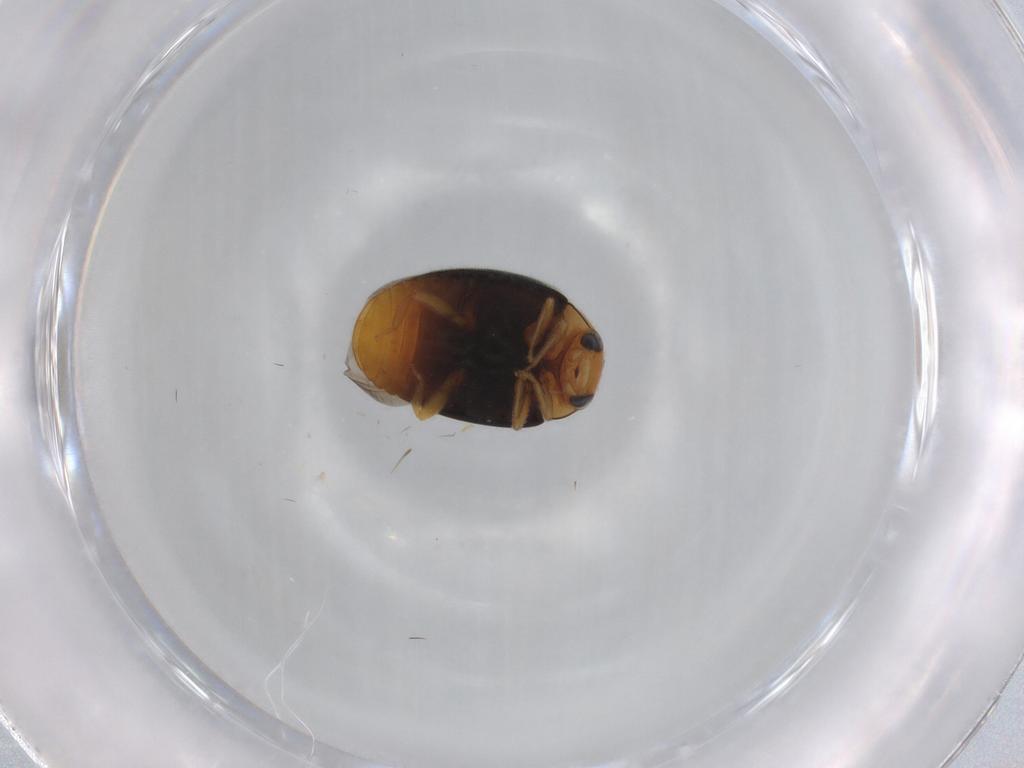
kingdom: Animalia
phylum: Arthropoda
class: Insecta
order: Coleoptera
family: Coccinellidae
